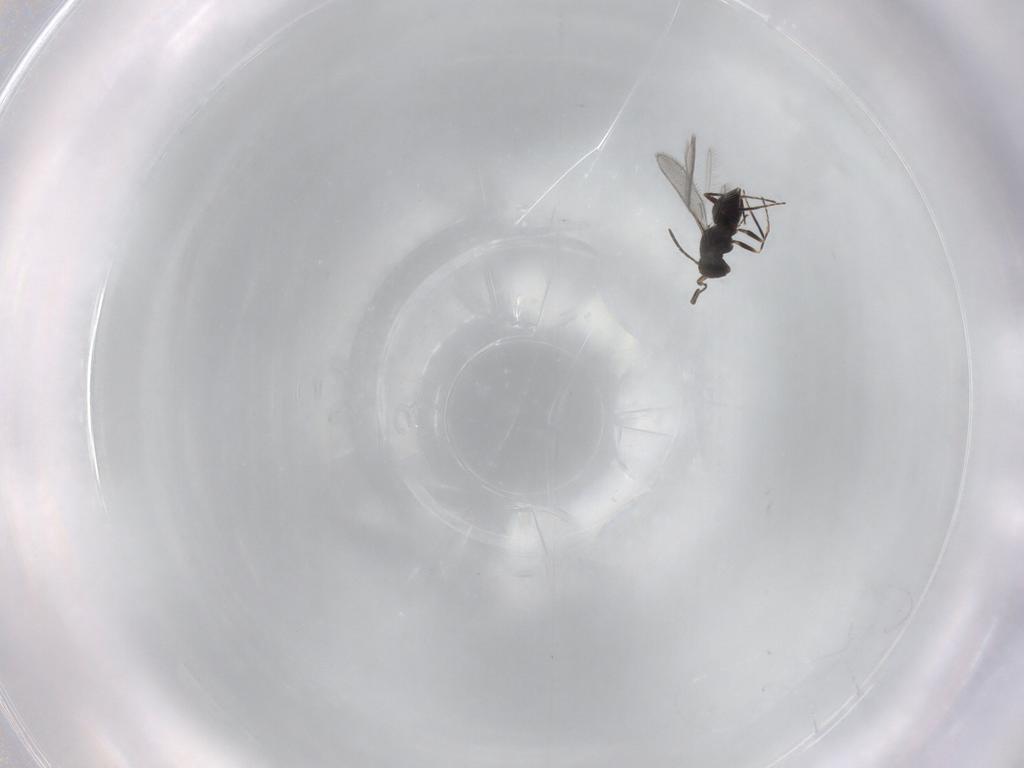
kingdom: Animalia
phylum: Arthropoda
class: Insecta
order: Hymenoptera
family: Mymaridae
